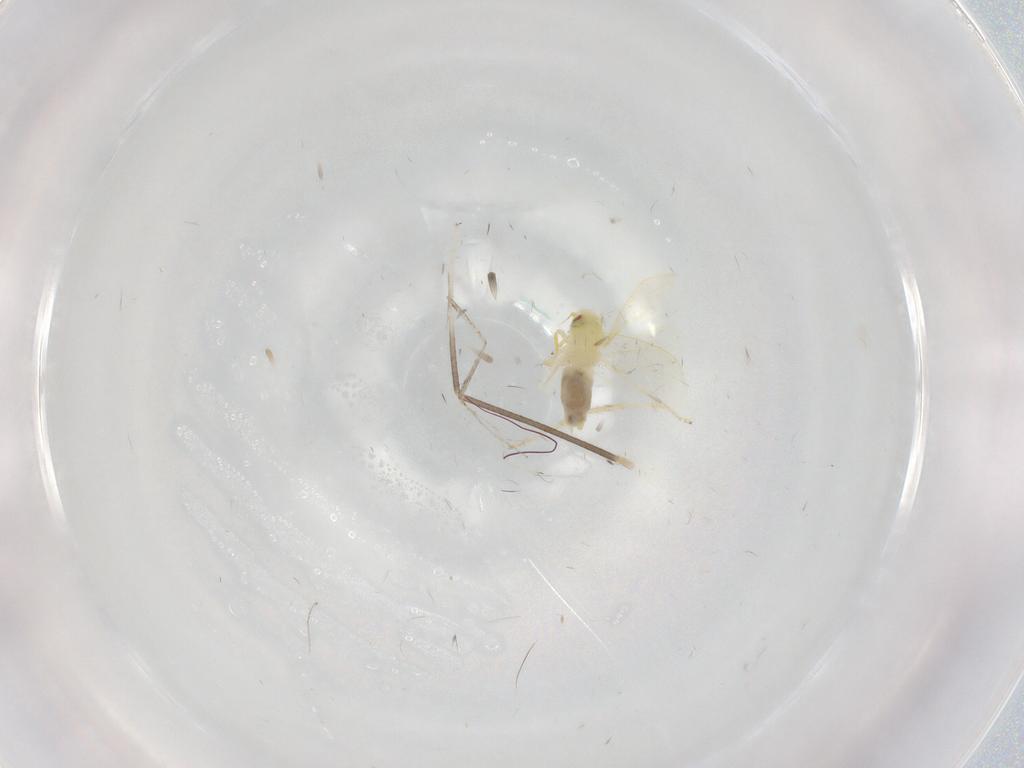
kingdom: Animalia
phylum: Arthropoda
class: Insecta
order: Hemiptera
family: Aleyrodidae
